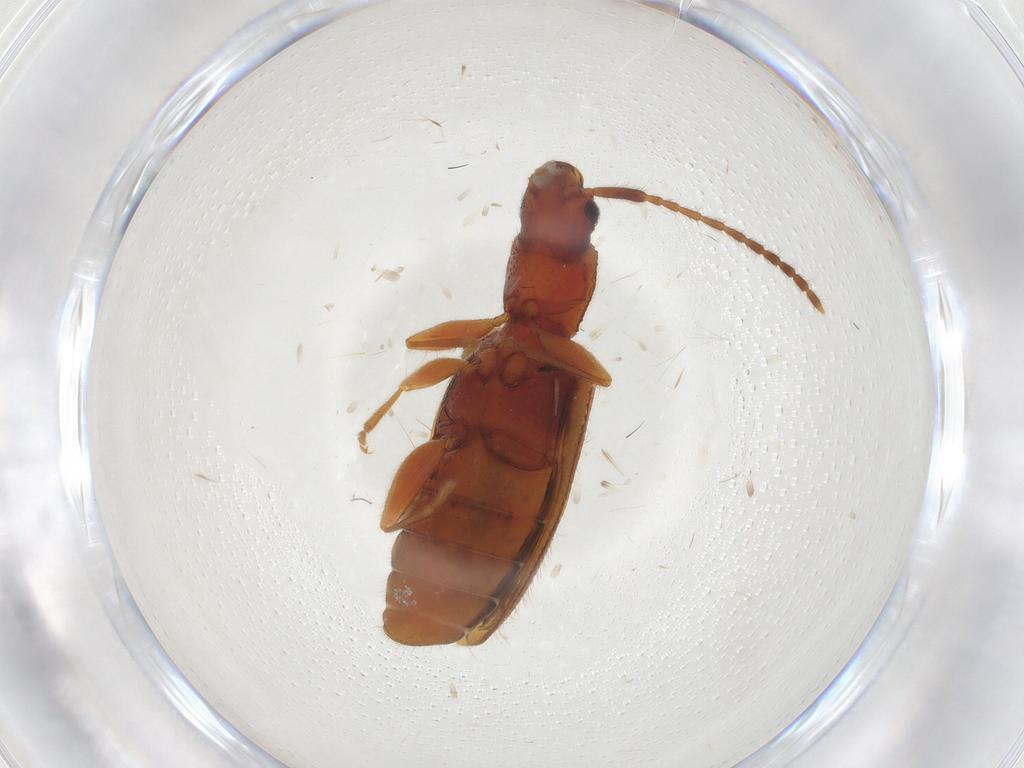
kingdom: Animalia
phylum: Arthropoda
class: Insecta
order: Coleoptera
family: Silvanidae
